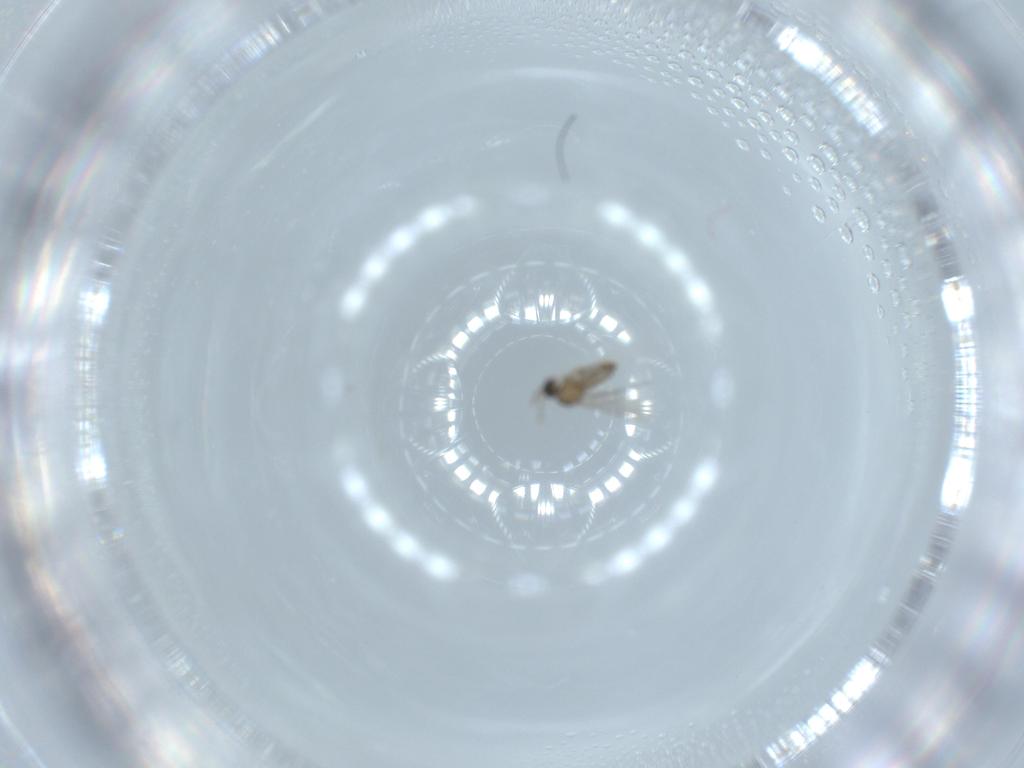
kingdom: Animalia
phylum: Arthropoda
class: Insecta
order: Diptera
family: Cecidomyiidae
